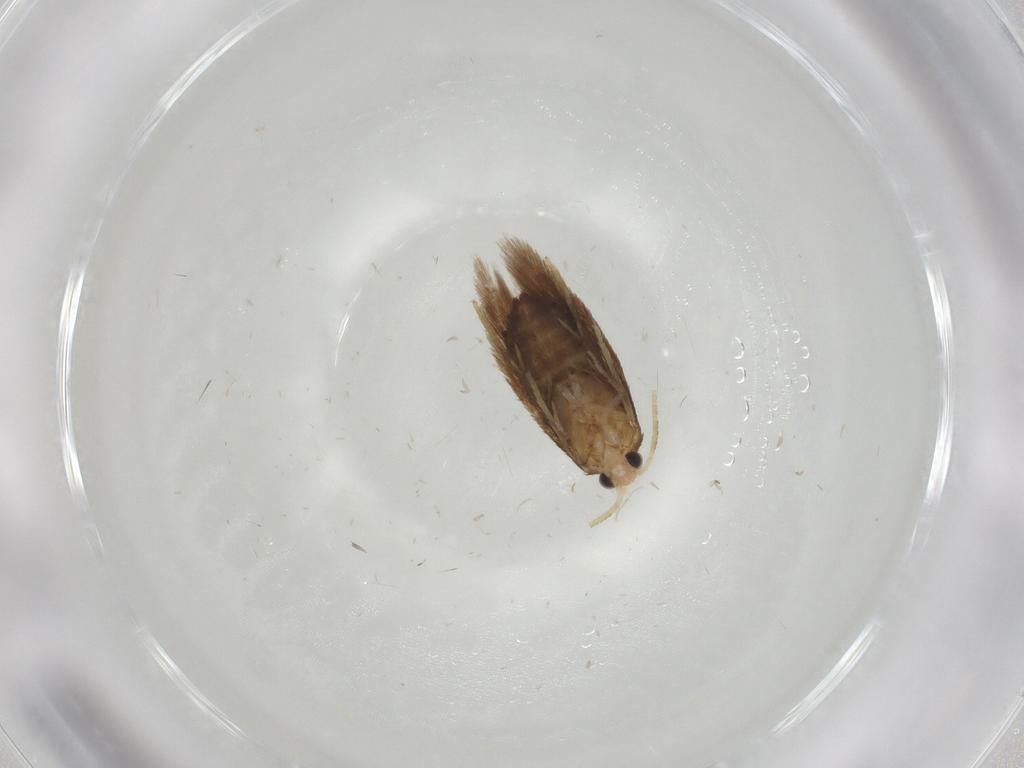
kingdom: Animalia
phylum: Arthropoda
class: Insecta
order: Lepidoptera
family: Nepticulidae
